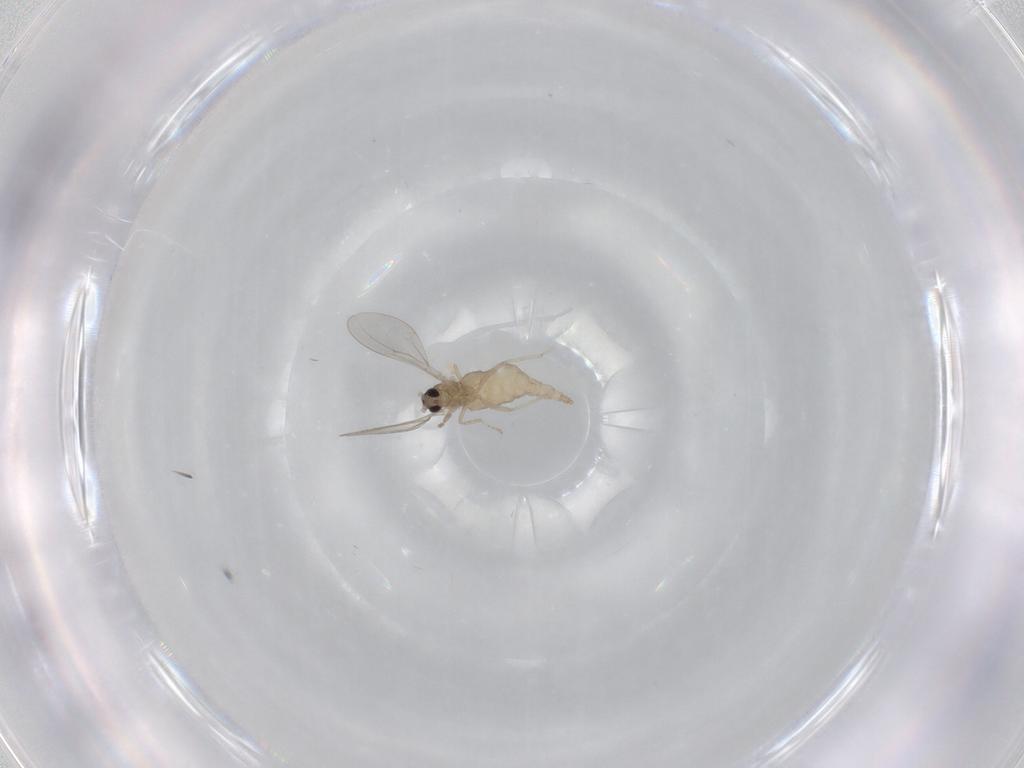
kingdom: Animalia
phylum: Arthropoda
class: Insecta
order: Diptera
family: Cecidomyiidae
